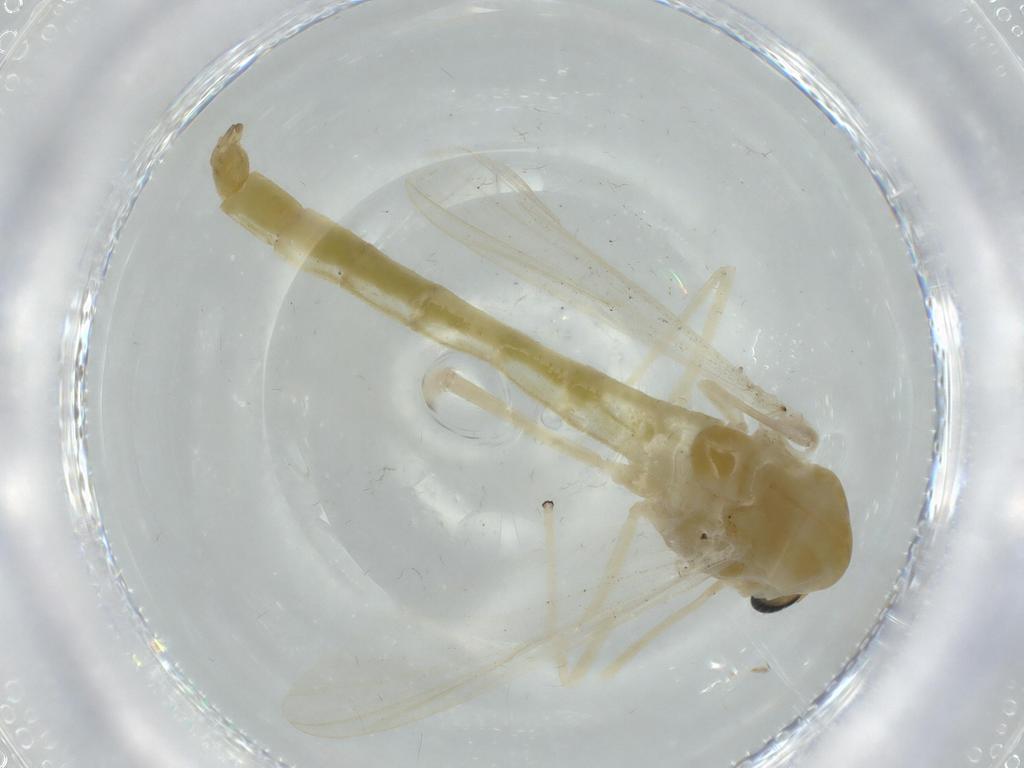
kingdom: Animalia
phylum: Arthropoda
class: Insecta
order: Diptera
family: Chironomidae
